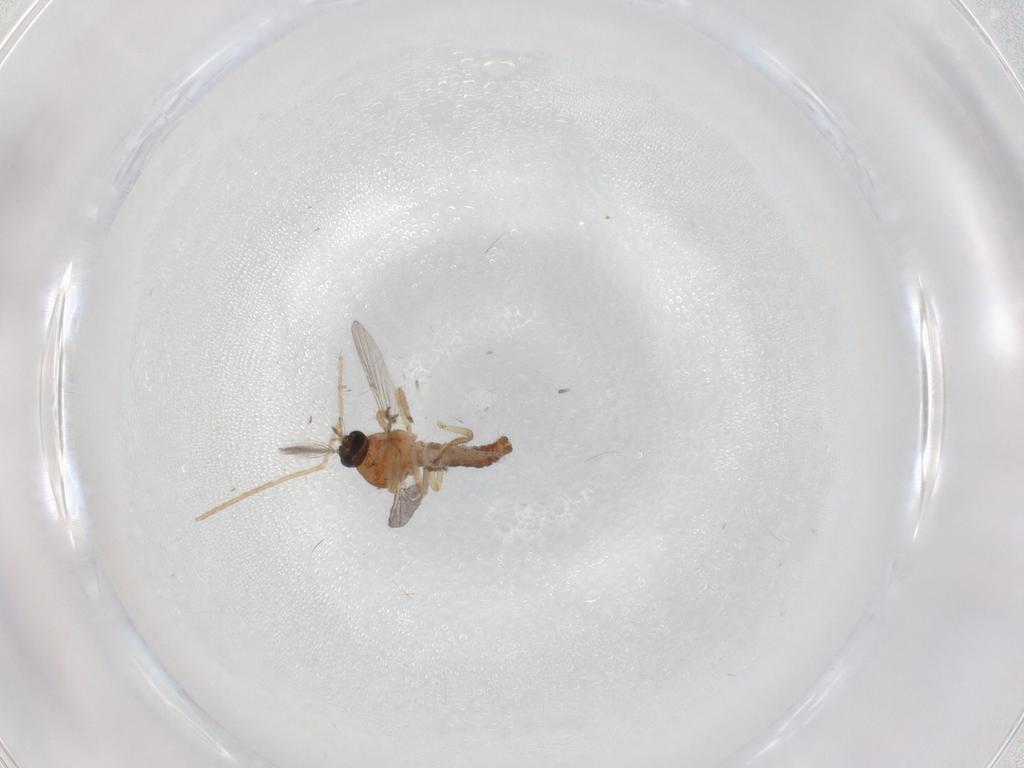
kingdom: Animalia
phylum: Arthropoda
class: Insecta
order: Diptera
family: Ceratopogonidae
